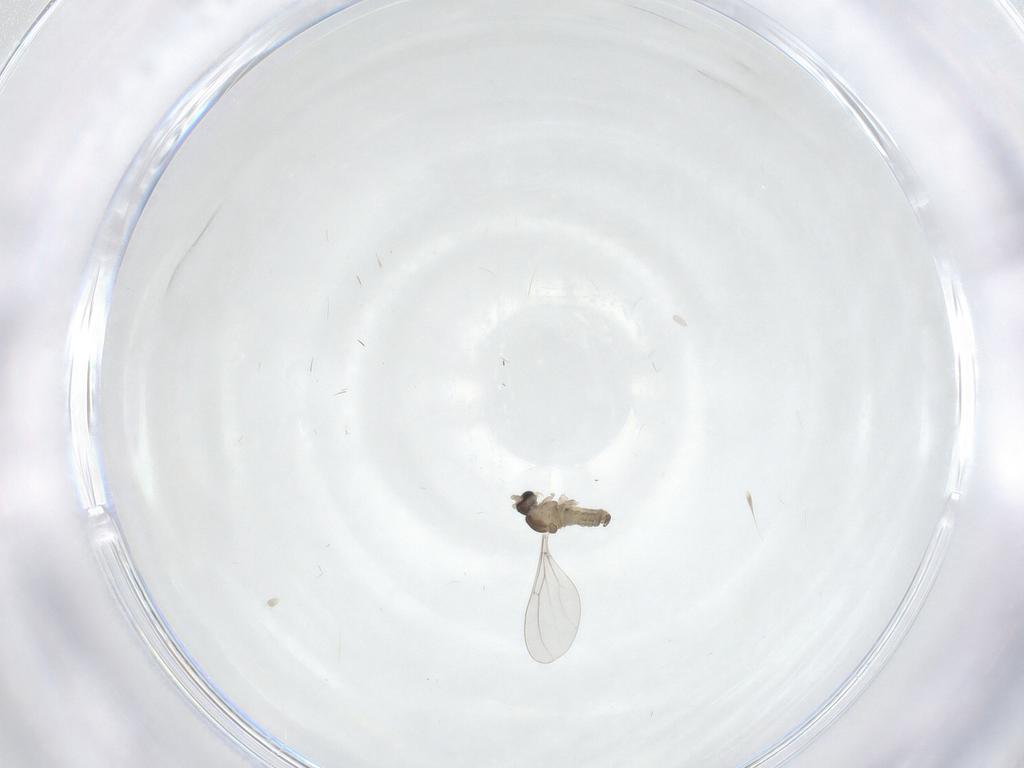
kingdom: Animalia
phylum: Arthropoda
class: Insecta
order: Diptera
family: Cecidomyiidae
